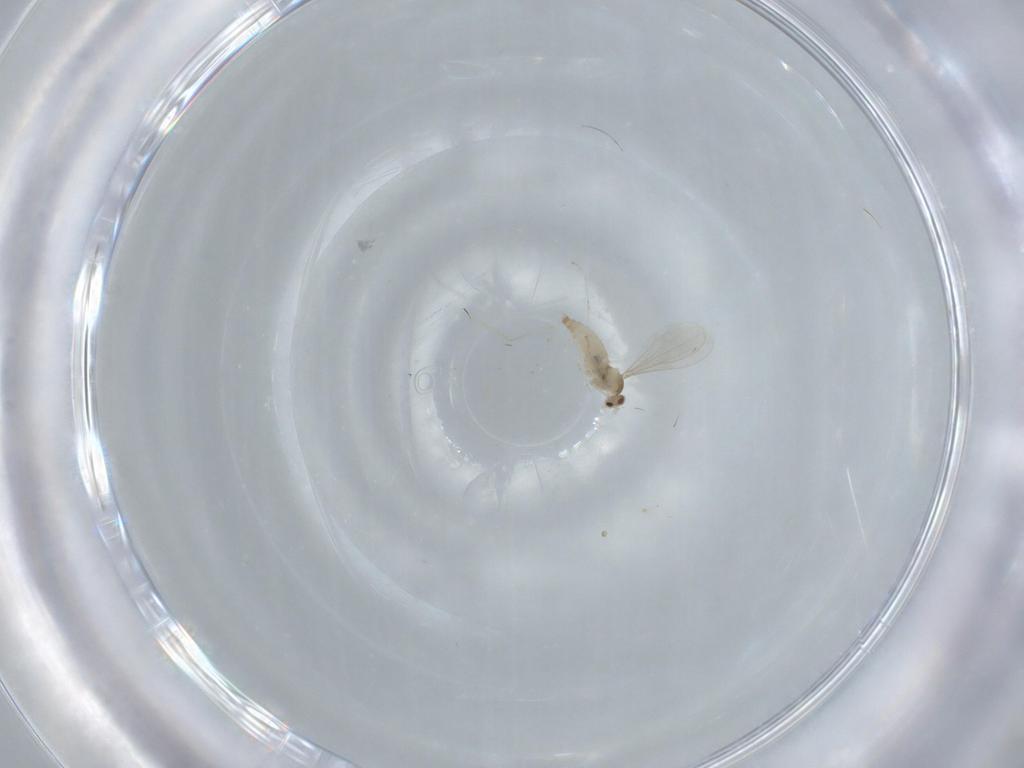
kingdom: Animalia
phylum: Arthropoda
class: Insecta
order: Diptera
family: Cecidomyiidae
